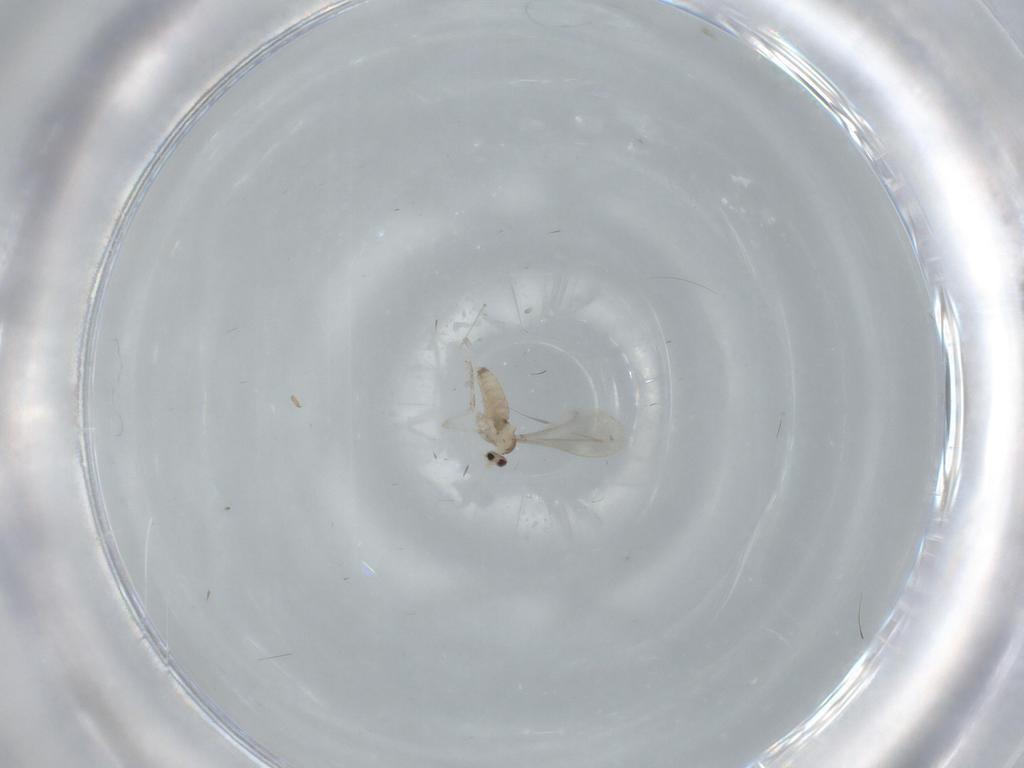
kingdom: Animalia
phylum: Arthropoda
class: Insecta
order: Diptera
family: Cecidomyiidae
